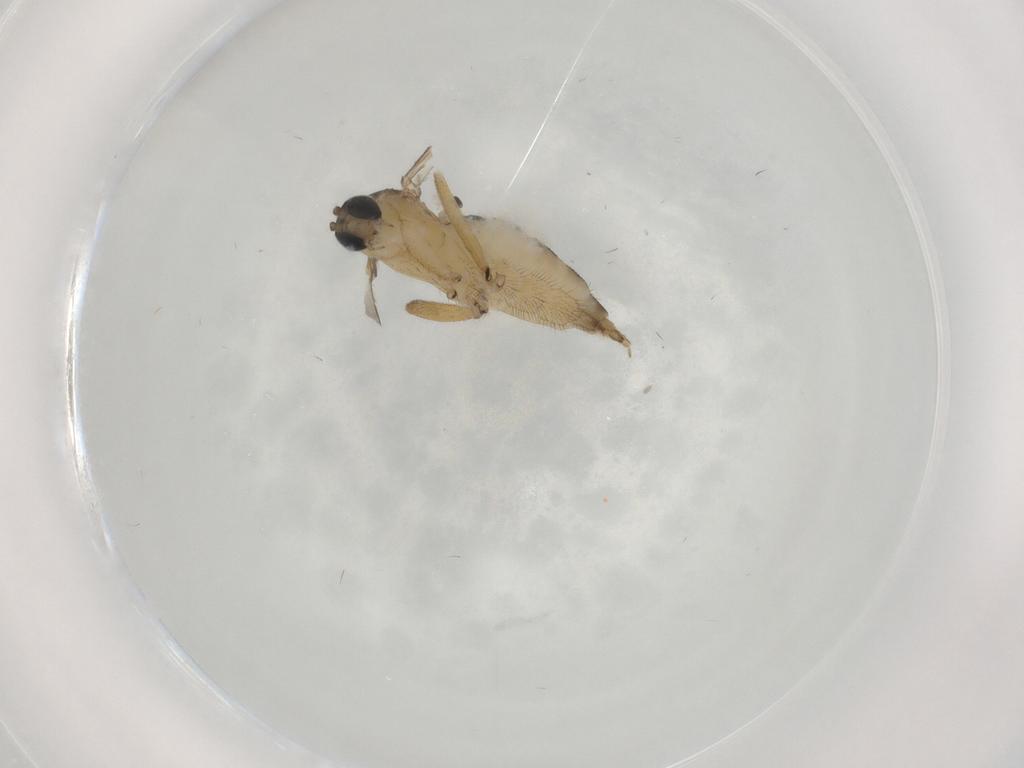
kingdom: Animalia
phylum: Arthropoda
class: Insecta
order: Diptera
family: Sciaridae
